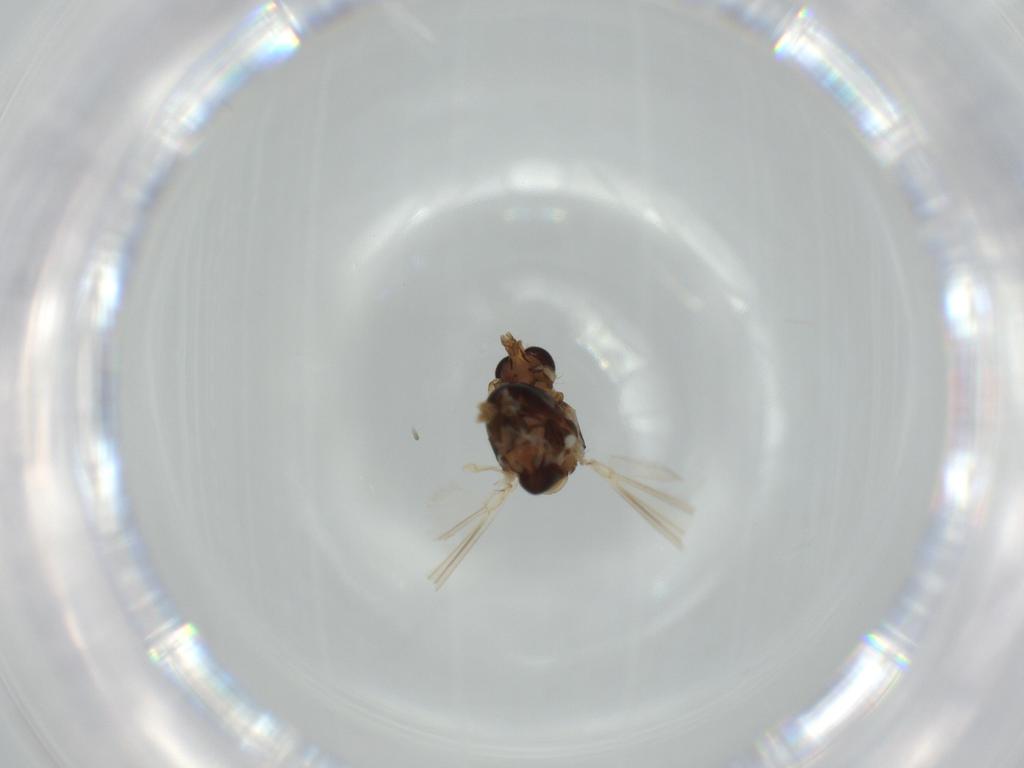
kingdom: Animalia
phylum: Arthropoda
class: Insecta
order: Diptera
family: Chironomidae
